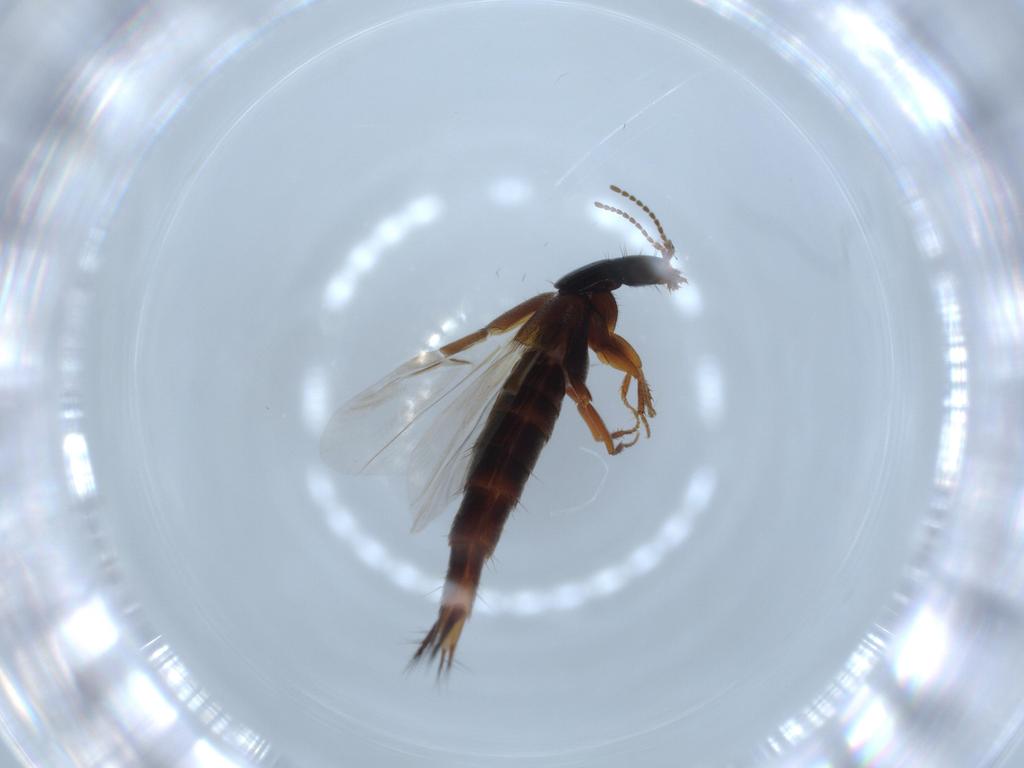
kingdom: Animalia
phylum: Arthropoda
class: Insecta
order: Coleoptera
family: Staphylinidae
